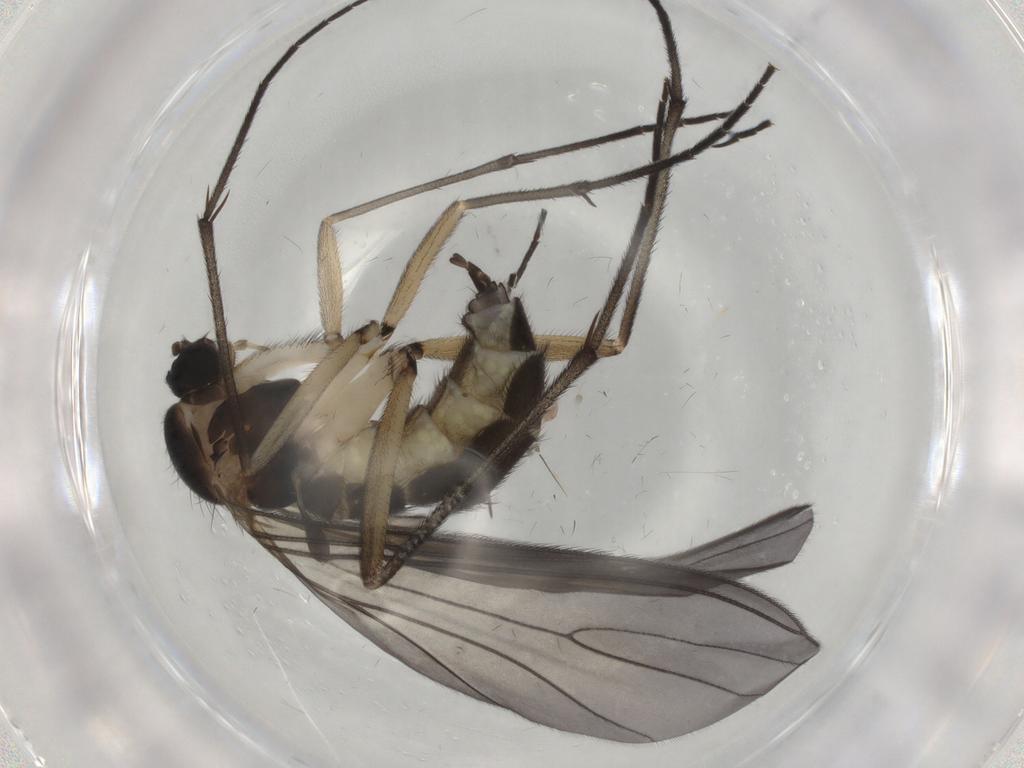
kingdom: Animalia
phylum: Arthropoda
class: Insecta
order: Diptera
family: Sciaridae
